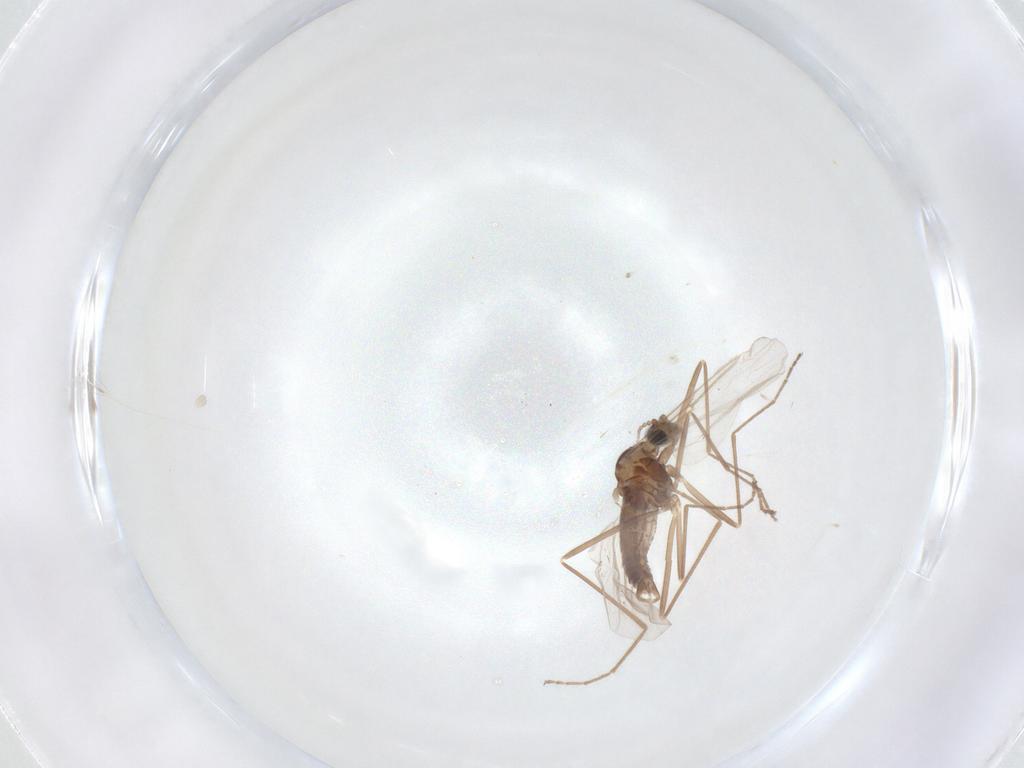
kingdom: Animalia
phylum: Arthropoda
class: Insecta
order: Diptera
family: Cecidomyiidae
